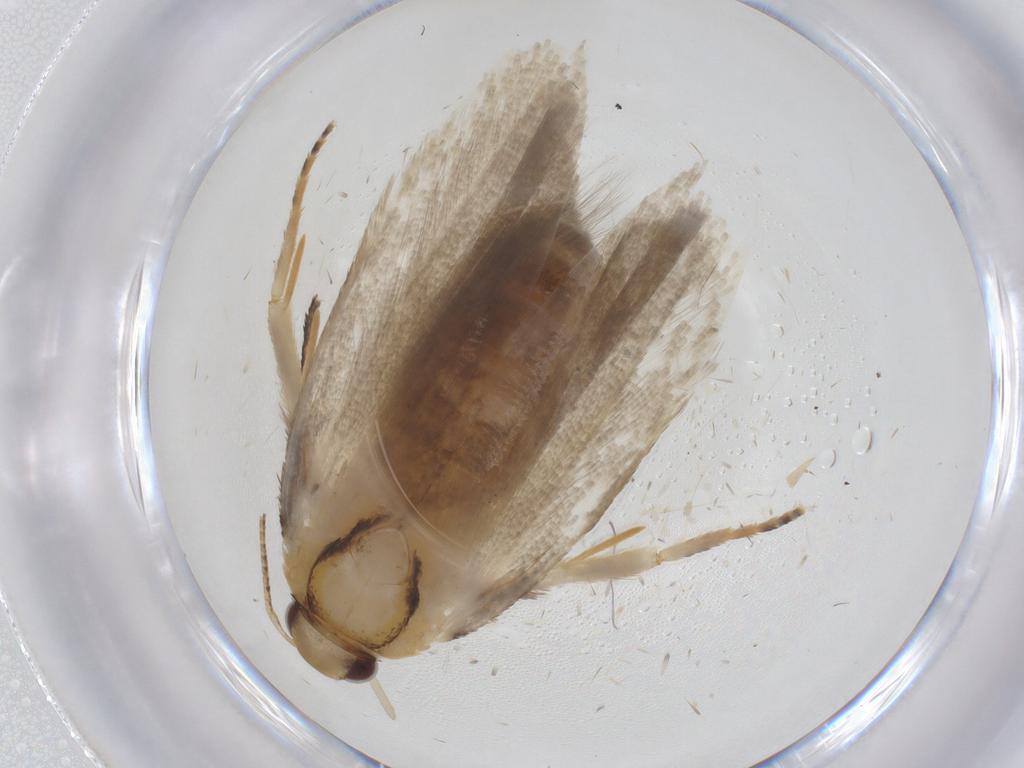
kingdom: Animalia
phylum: Arthropoda
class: Insecta
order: Lepidoptera
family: Gelechiidae
